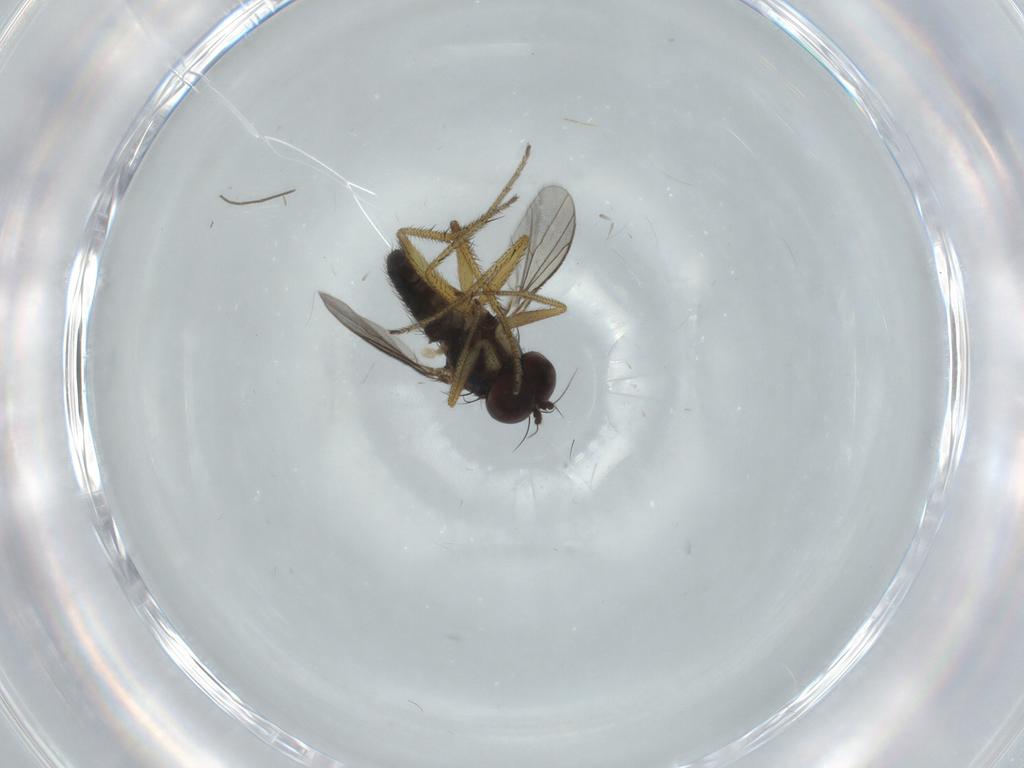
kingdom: Animalia
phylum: Arthropoda
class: Insecta
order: Diptera
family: Dolichopodidae
